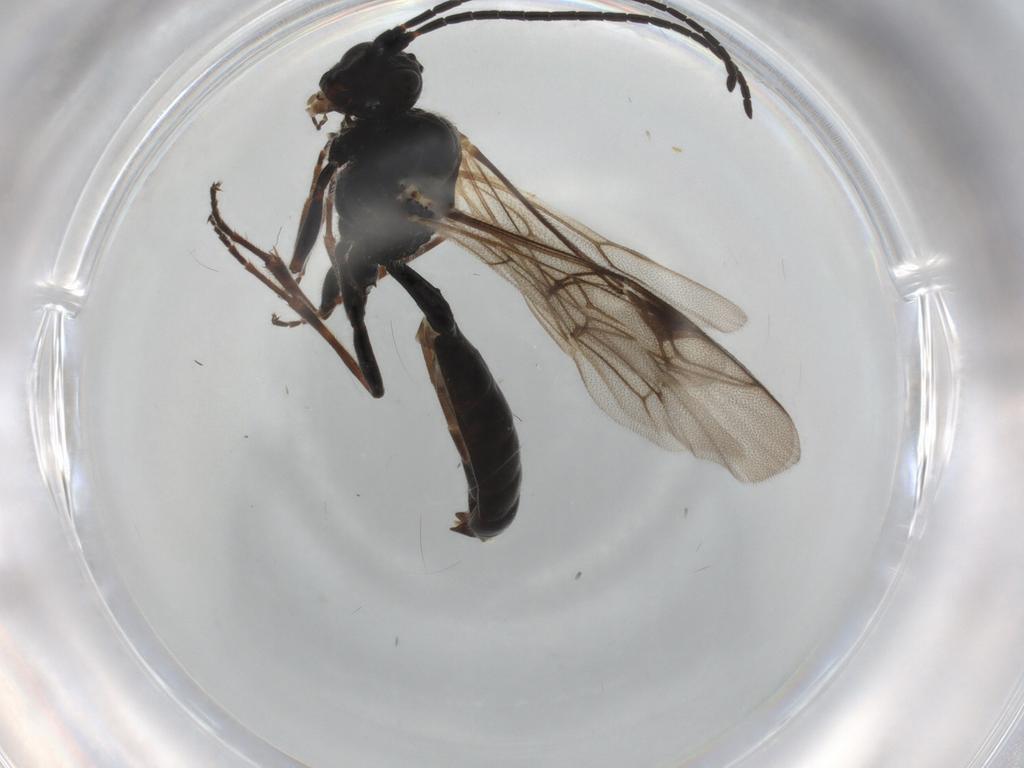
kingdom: Animalia
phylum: Arthropoda
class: Insecta
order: Hymenoptera
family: Ichneumonidae
